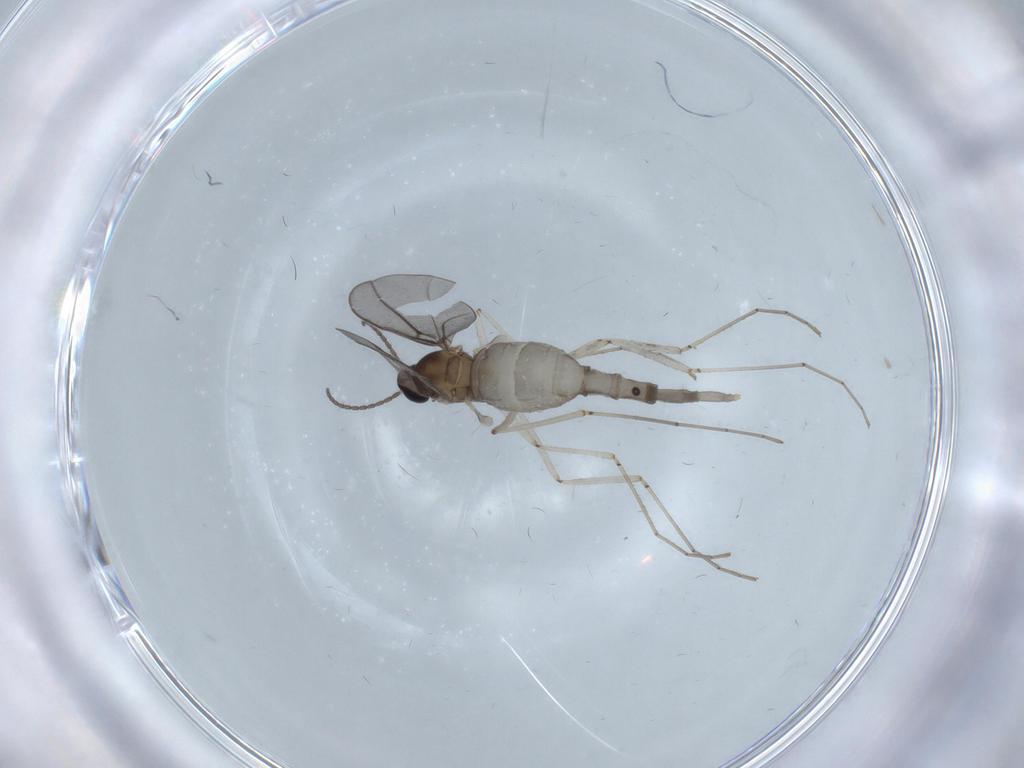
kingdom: Animalia
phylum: Arthropoda
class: Insecta
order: Diptera
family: Cecidomyiidae
